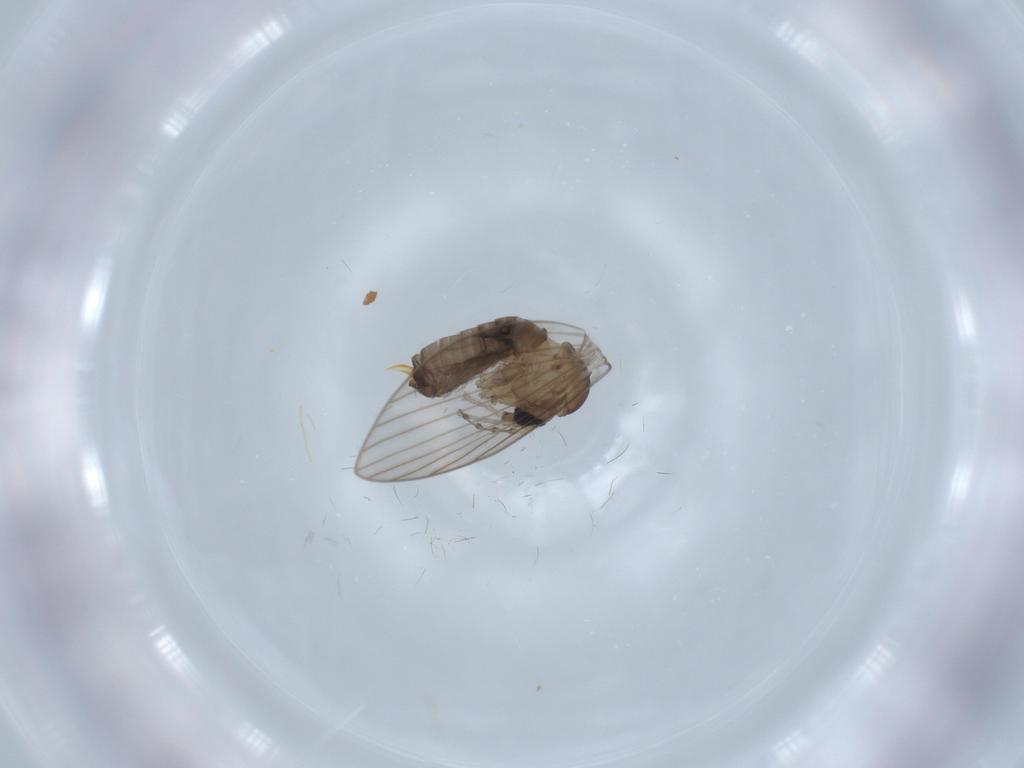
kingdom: Animalia
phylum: Arthropoda
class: Insecta
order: Diptera
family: Psychodidae
